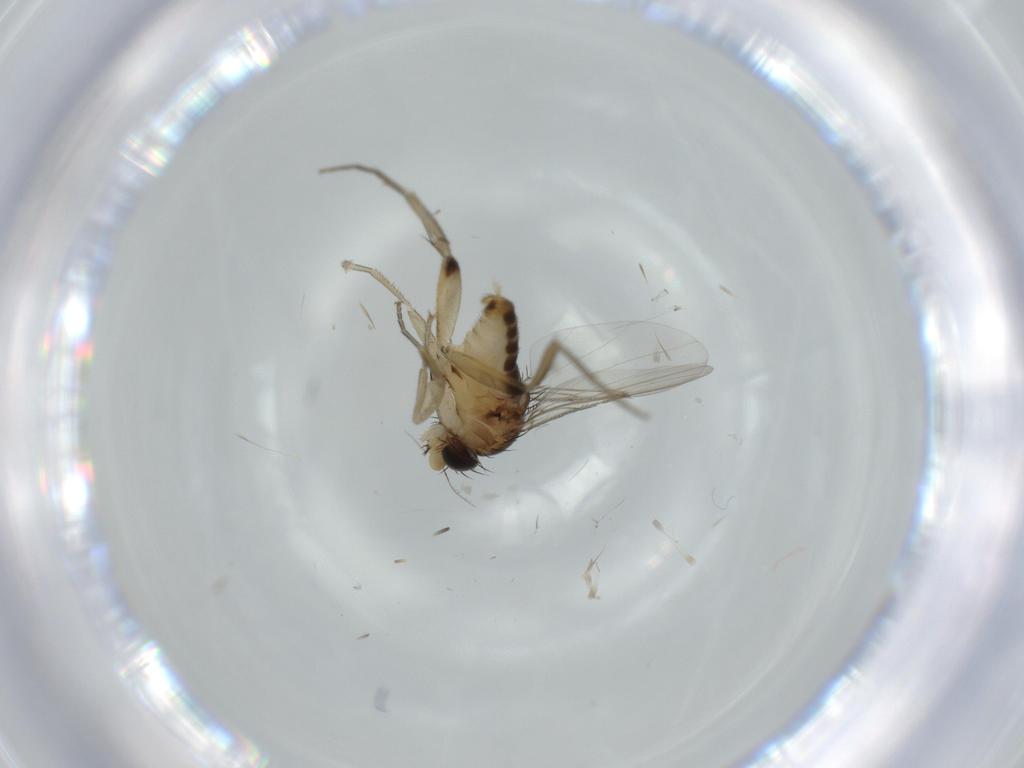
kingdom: Animalia
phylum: Arthropoda
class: Insecta
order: Diptera
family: Phoridae
